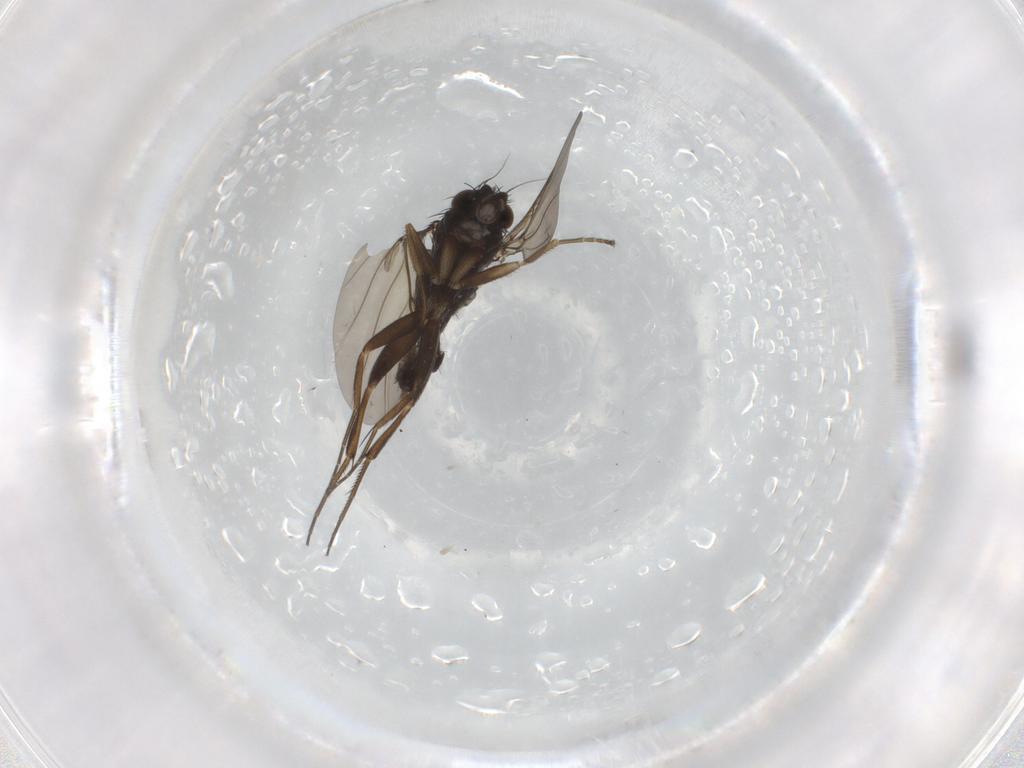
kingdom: Animalia
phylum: Arthropoda
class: Insecta
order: Diptera
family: Phoridae
